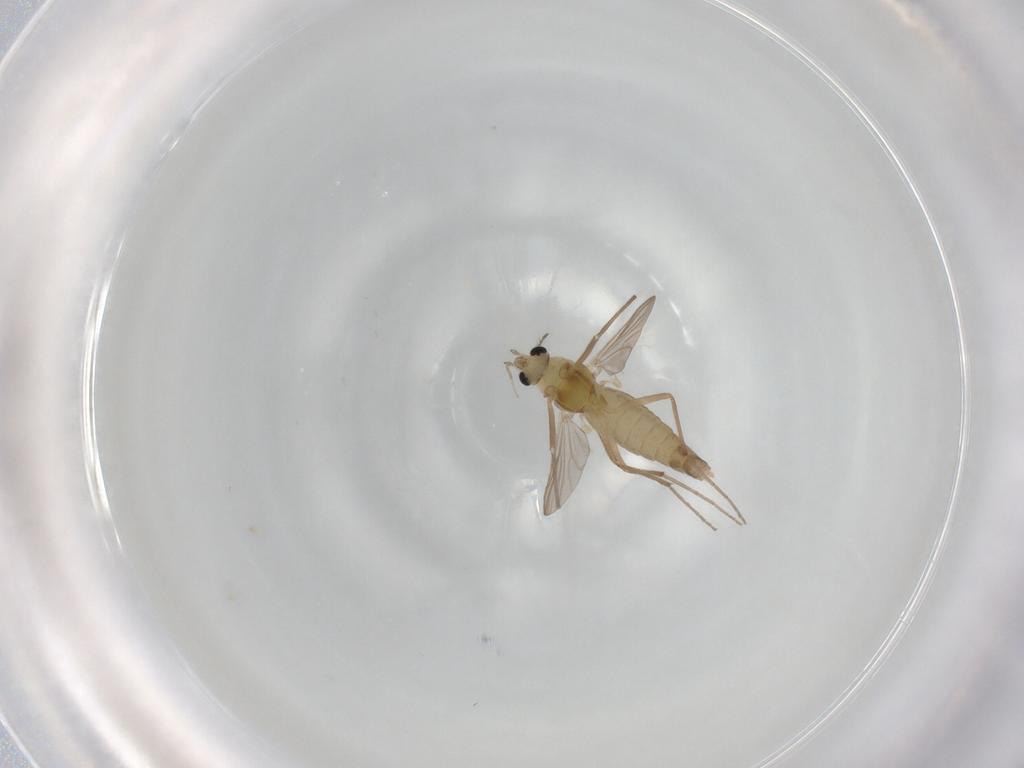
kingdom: Animalia
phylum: Arthropoda
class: Insecta
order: Diptera
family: Chironomidae
